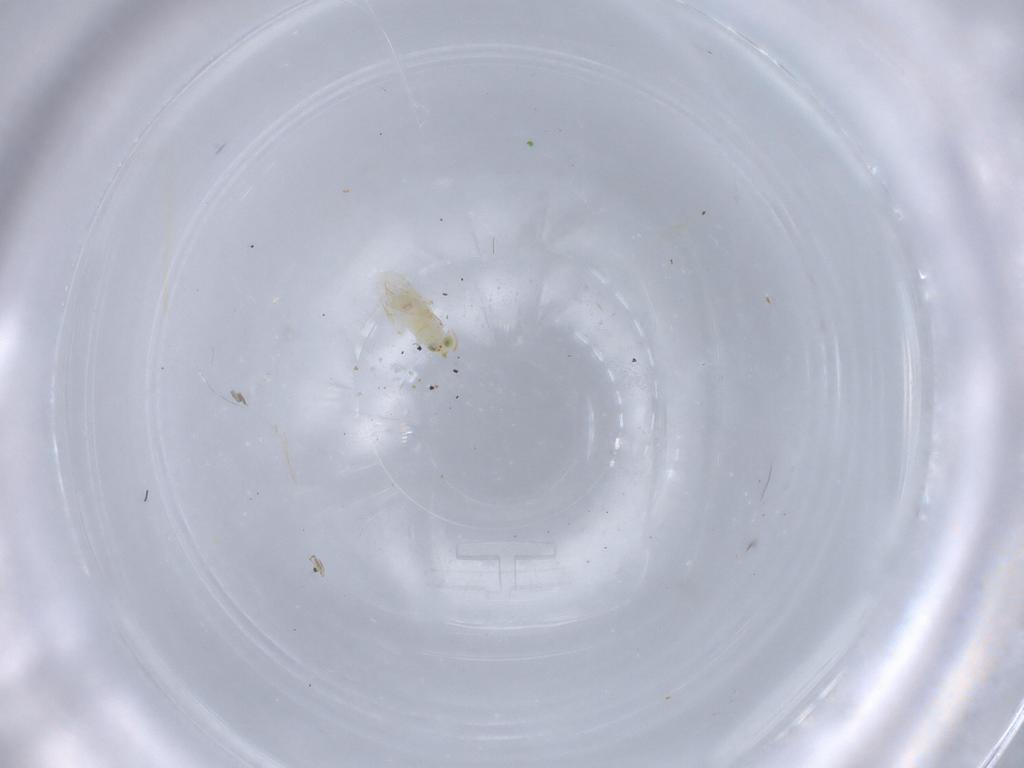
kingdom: Animalia
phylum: Arthropoda
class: Insecta
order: Hymenoptera
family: Aphelinidae
